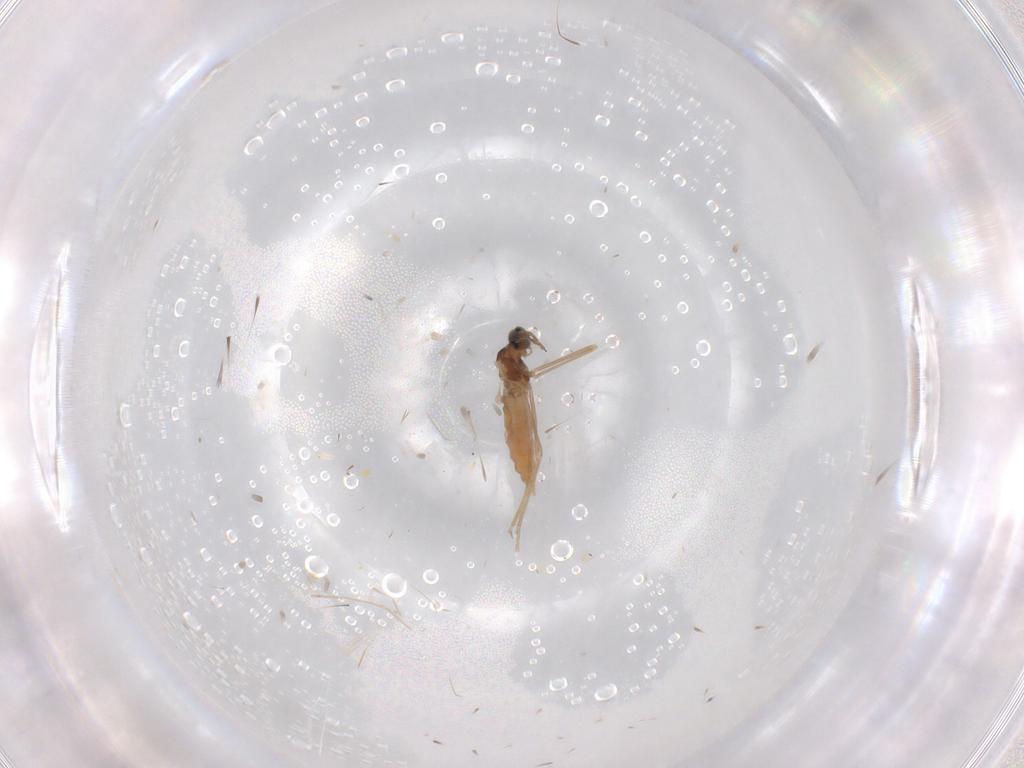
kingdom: Animalia
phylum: Arthropoda
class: Insecta
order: Diptera
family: Cecidomyiidae
